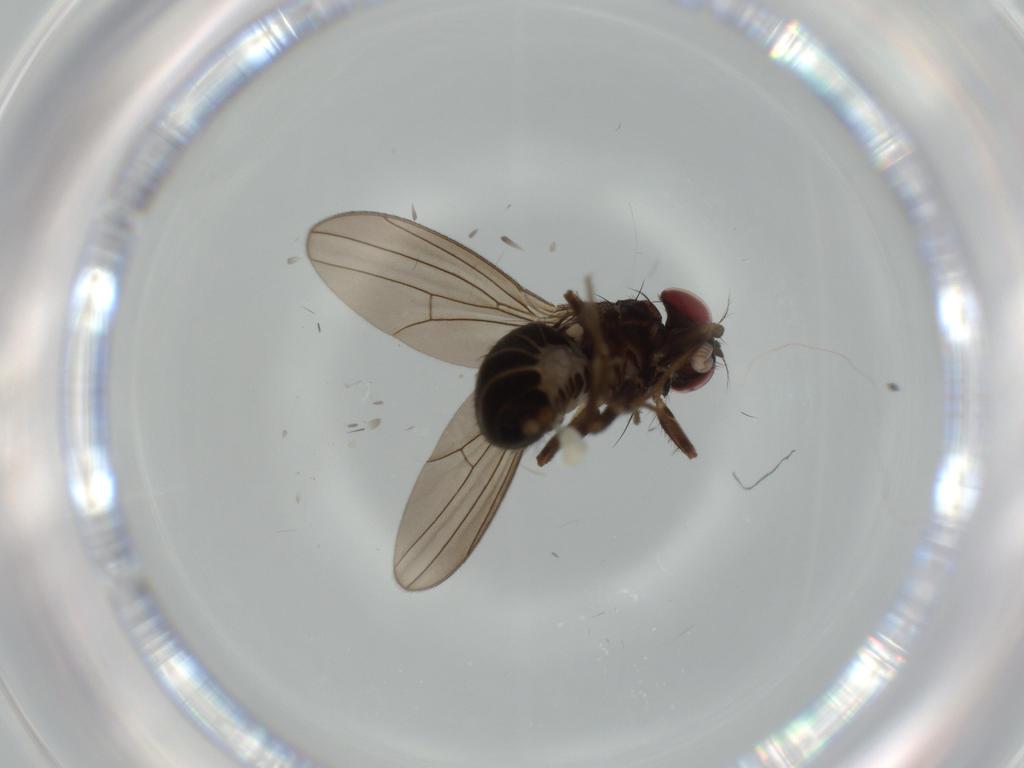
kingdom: Animalia
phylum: Arthropoda
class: Insecta
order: Diptera
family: Drosophilidae
